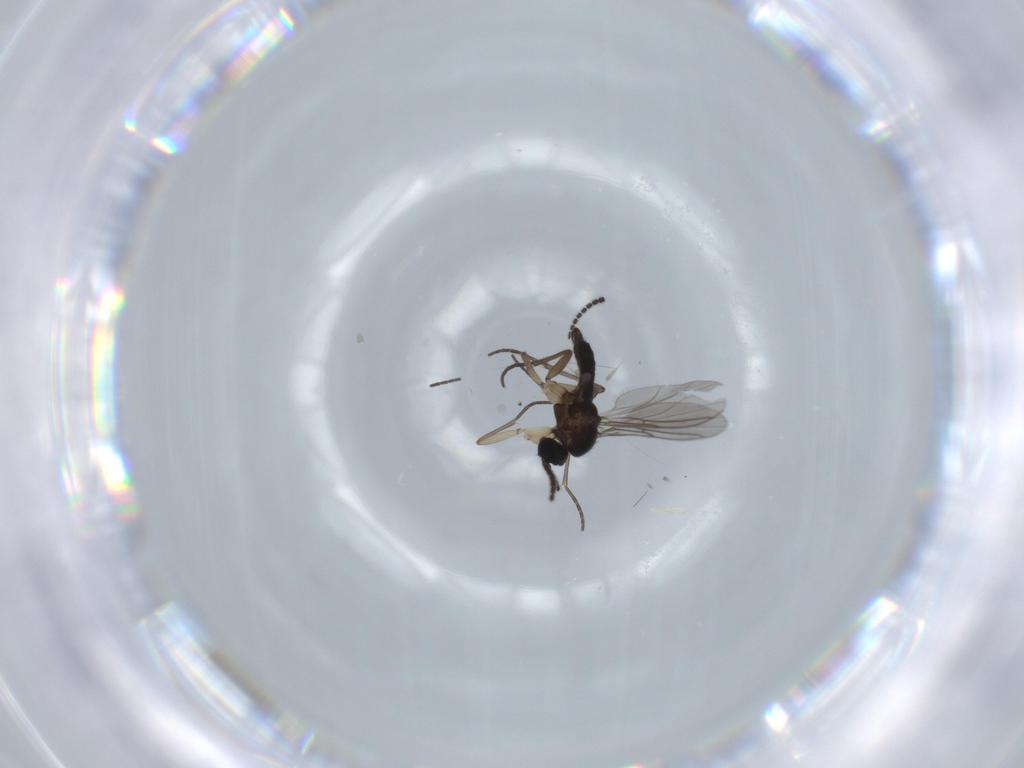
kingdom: Animalia
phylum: Arthropoda
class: Insecta
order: Diptera
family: Sciaridae
